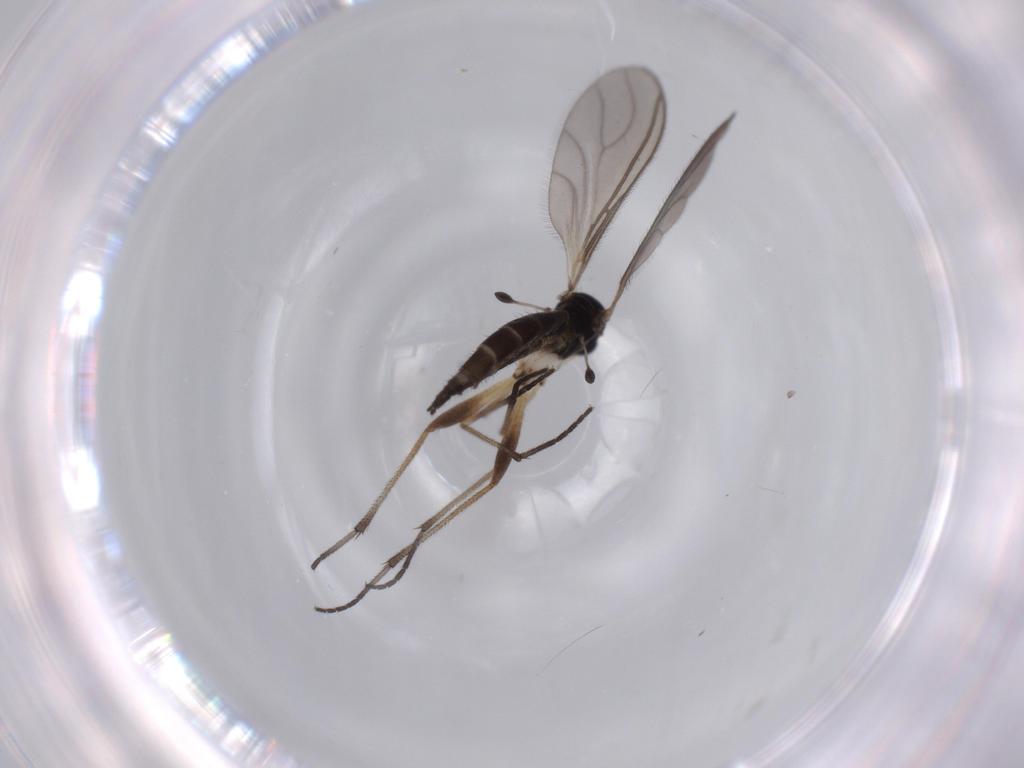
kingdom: Animalia
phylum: Arthropoda
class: Insecta
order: Diptera
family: Sciaridae
